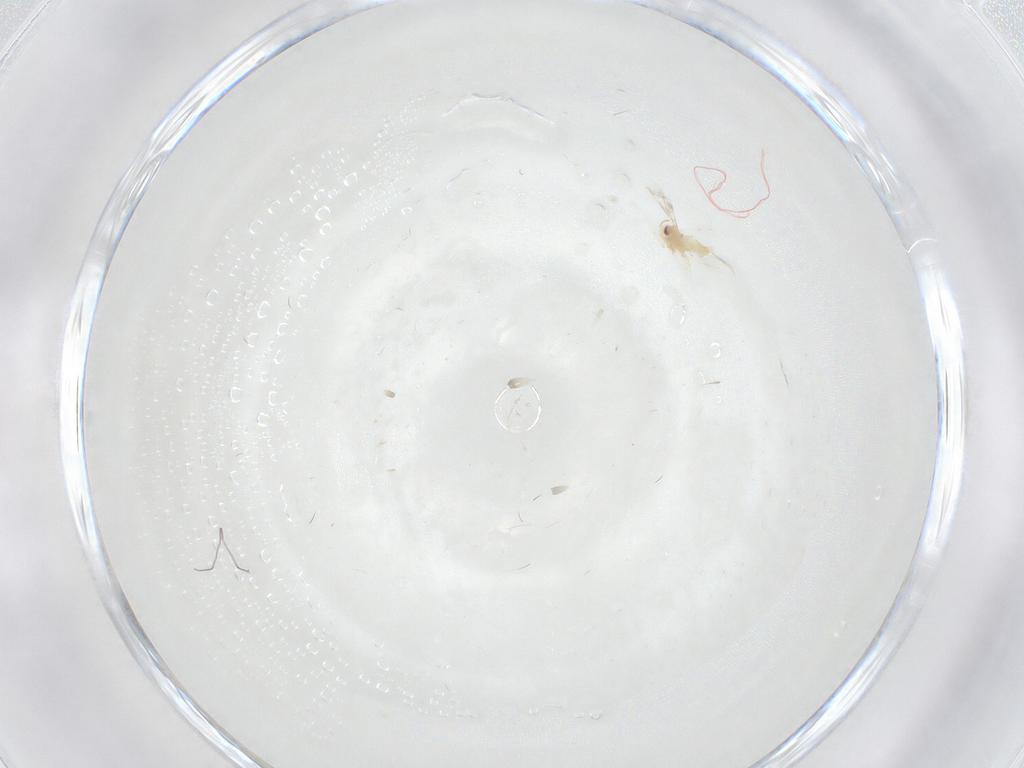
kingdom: Animalia
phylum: Arthropoda
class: Insecta
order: Hemiptera
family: Aleyrodidae
